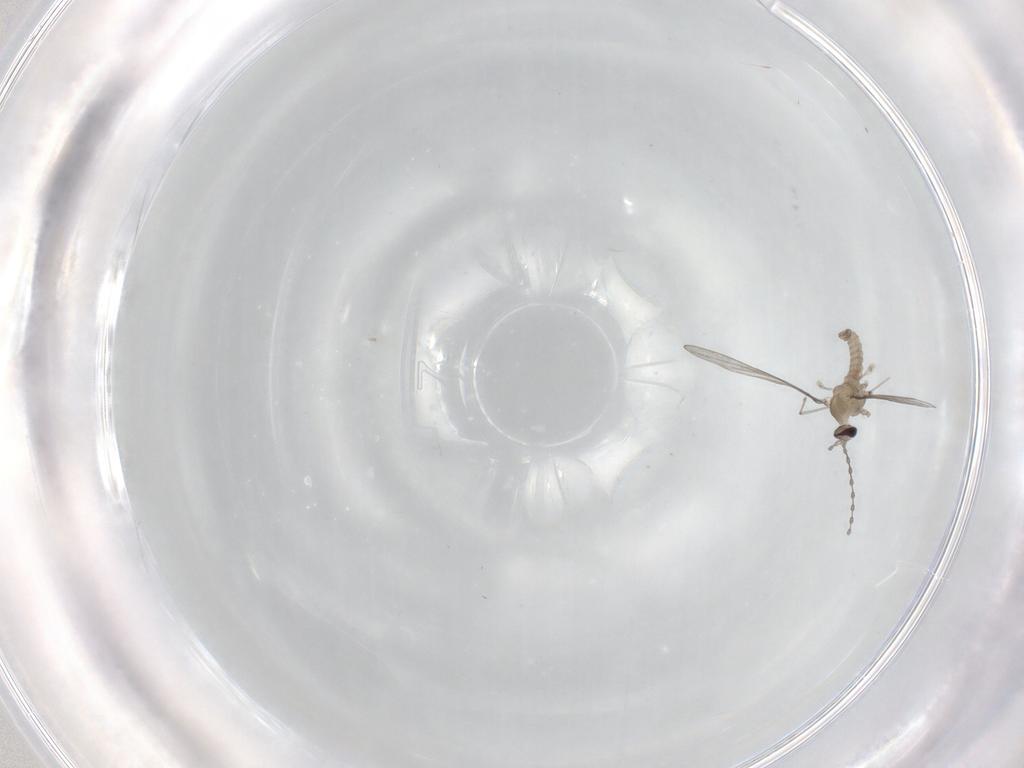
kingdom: Animalia
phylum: Arthropoda
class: Insecta
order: Diptera
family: Cecidomyiidae
